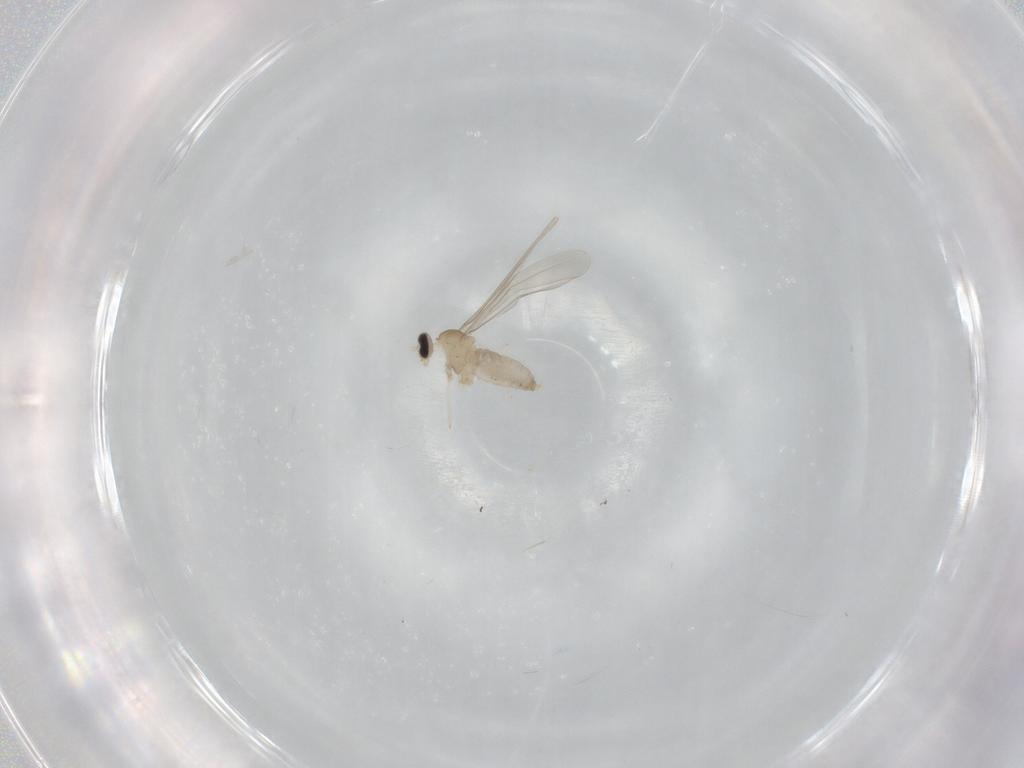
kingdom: Animalia
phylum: Arthropoda
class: Insecta
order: Diptera
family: Cecidomyiidae
